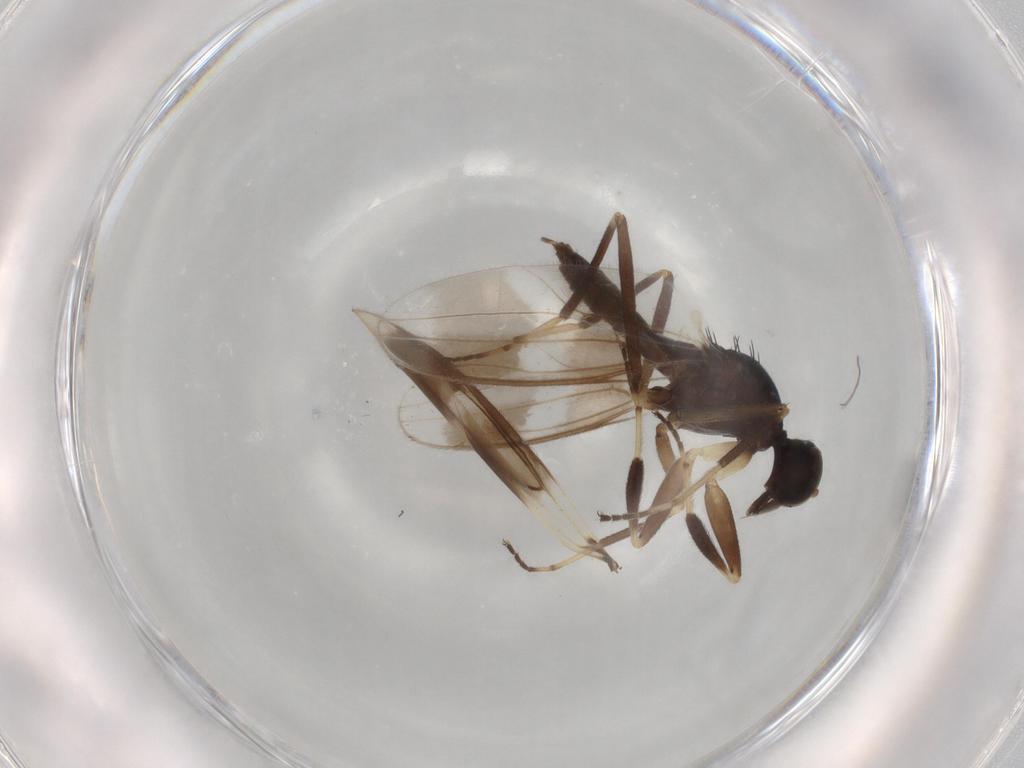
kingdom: Animalia
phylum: Arthropoda
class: Insecta
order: Diptera
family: Hybotidae
